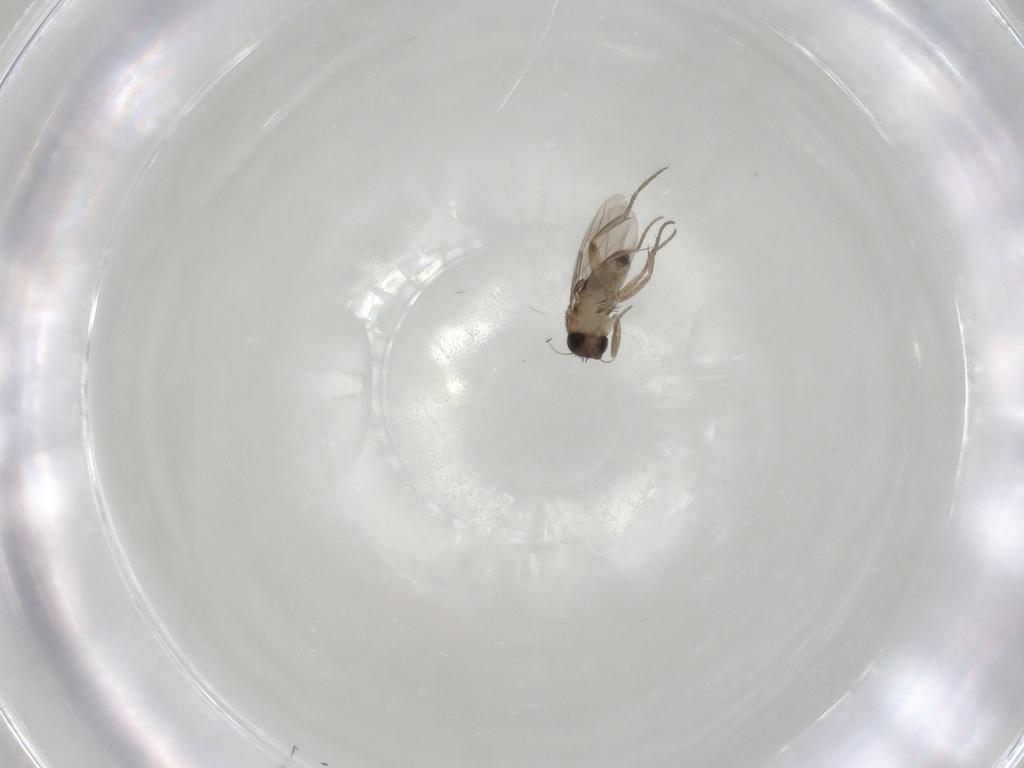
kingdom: Animalia
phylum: Arthropoda
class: Insecta
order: Diptera
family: Phoridae
